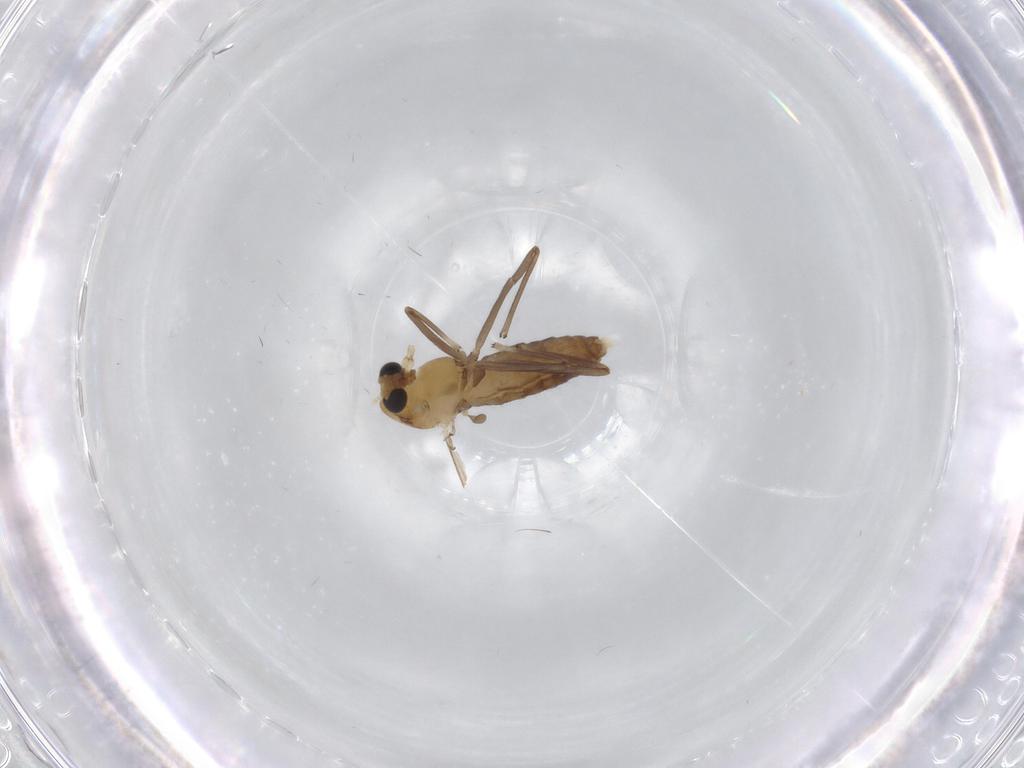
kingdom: Animalia
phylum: Arthropoda
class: Insecta
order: Diptera
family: Chironomidae
